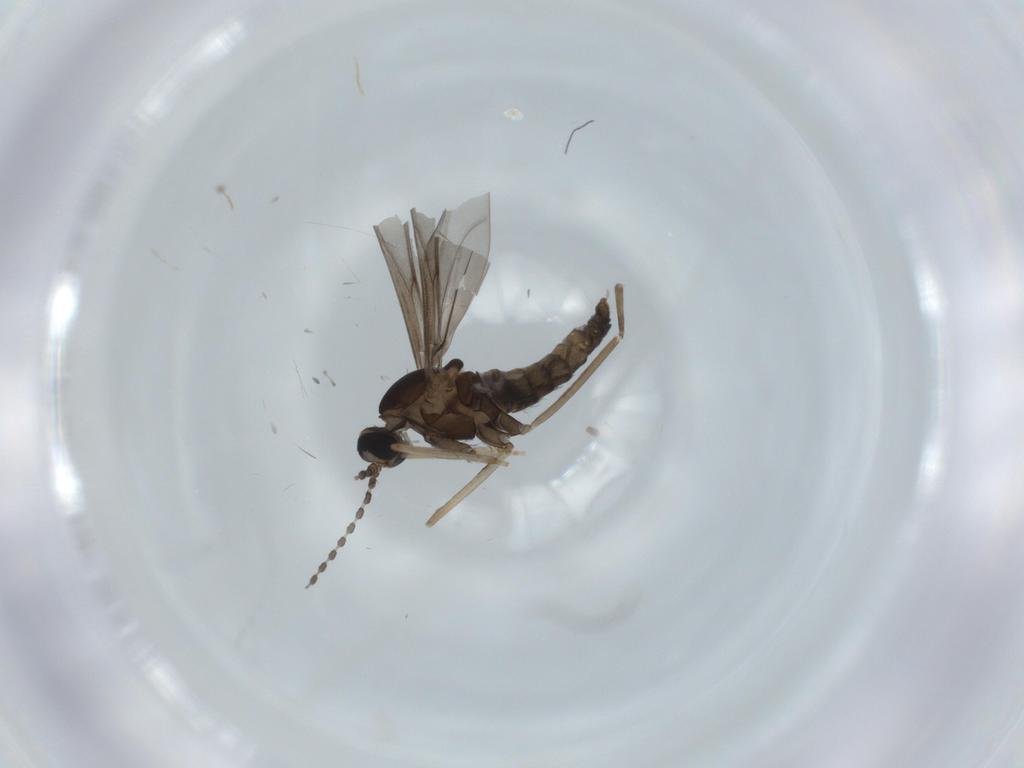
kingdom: Animalia
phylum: Arthropoda
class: Insecta
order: Diptera
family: Cecidomyiidae
